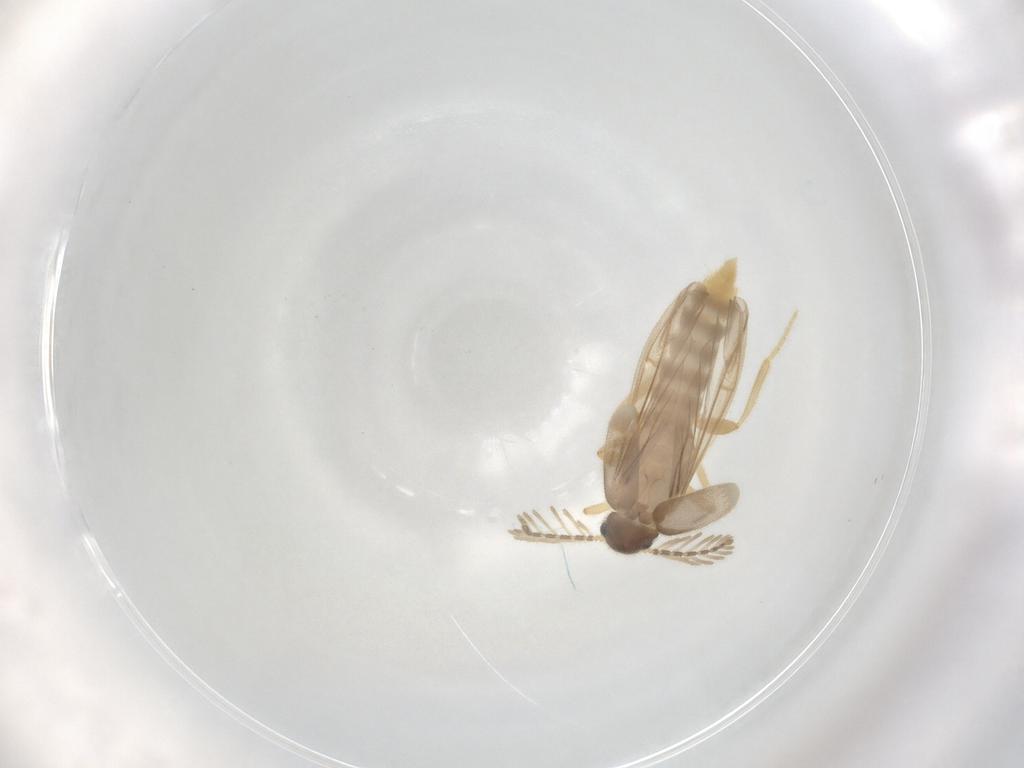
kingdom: Animalia
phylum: Arthropoda
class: Insecta
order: Coleoptera
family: Phengodidae
